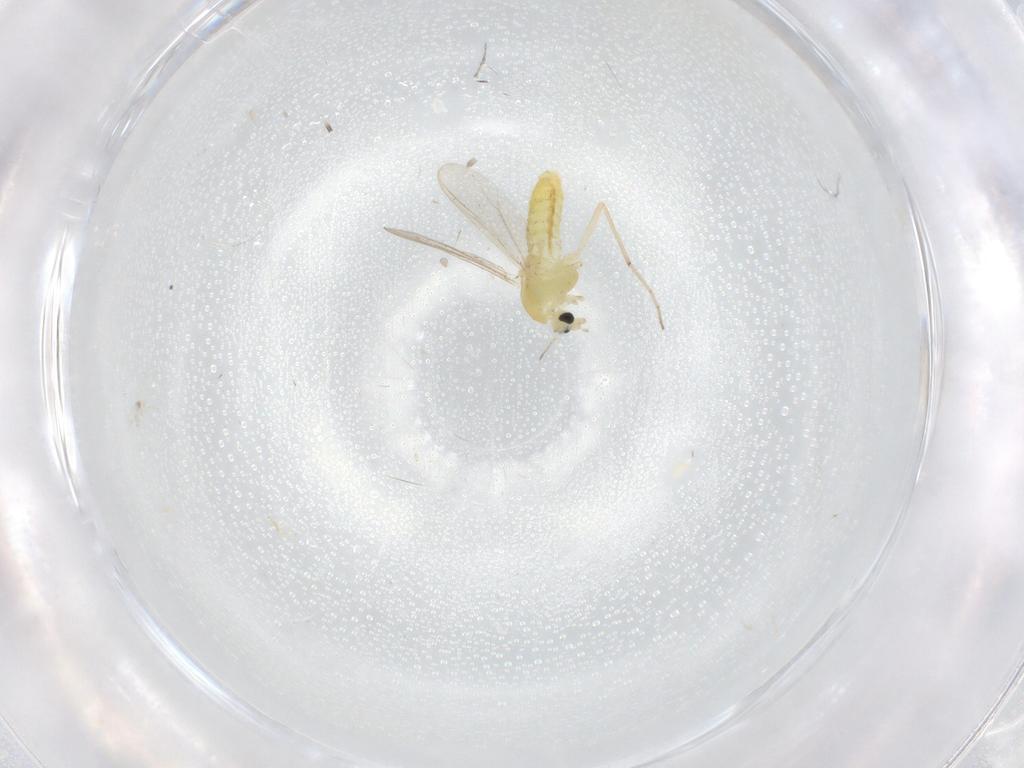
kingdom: Animalia
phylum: Arthropoda
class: Insecta
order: Diptera
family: Chironomidae
